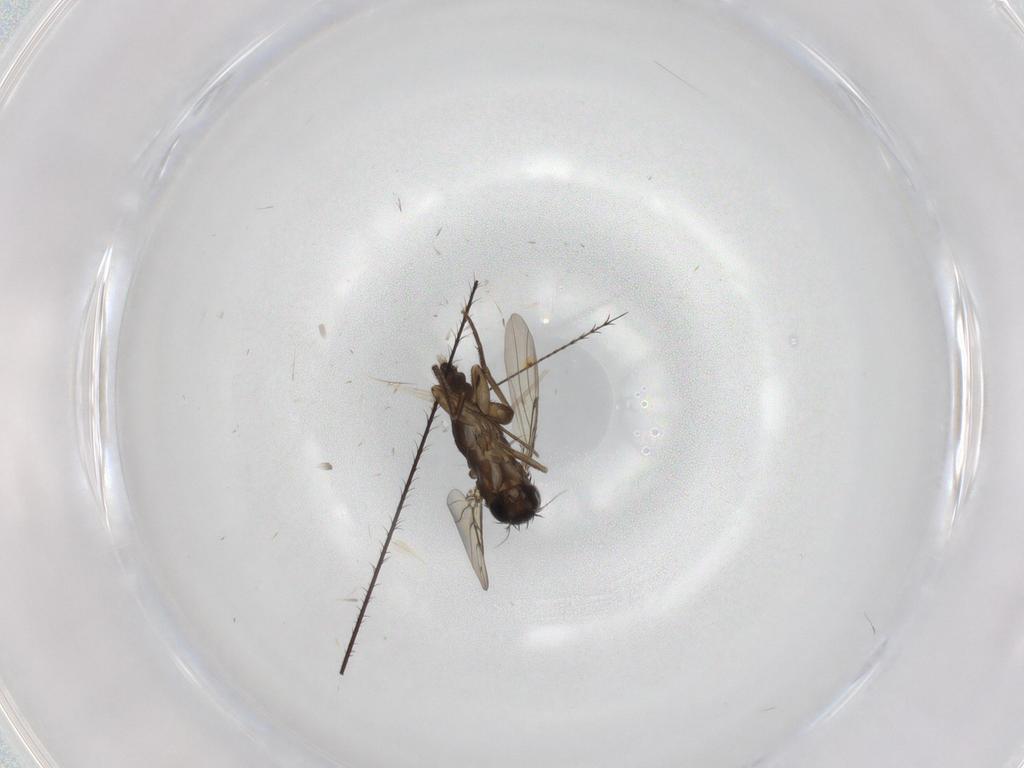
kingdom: Animalia
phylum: Arthropoda
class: Insecta
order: Diptera
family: Phoridae
